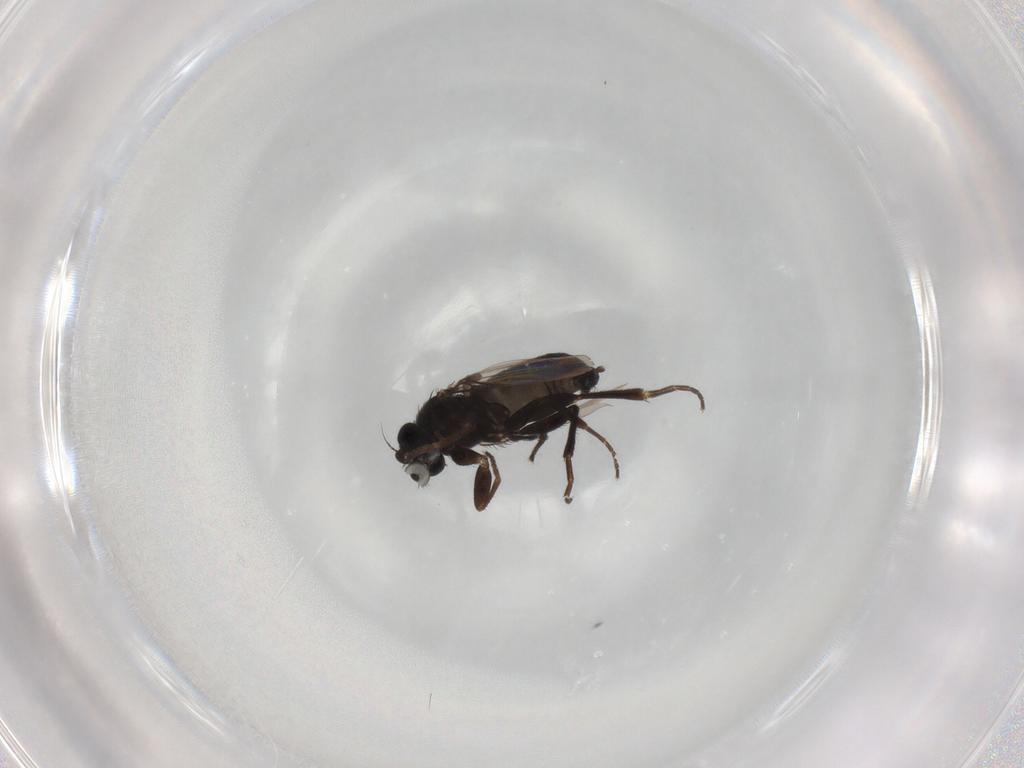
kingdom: Animalia
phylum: Arthropoda
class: Insecta
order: Diptera
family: Phoridae
